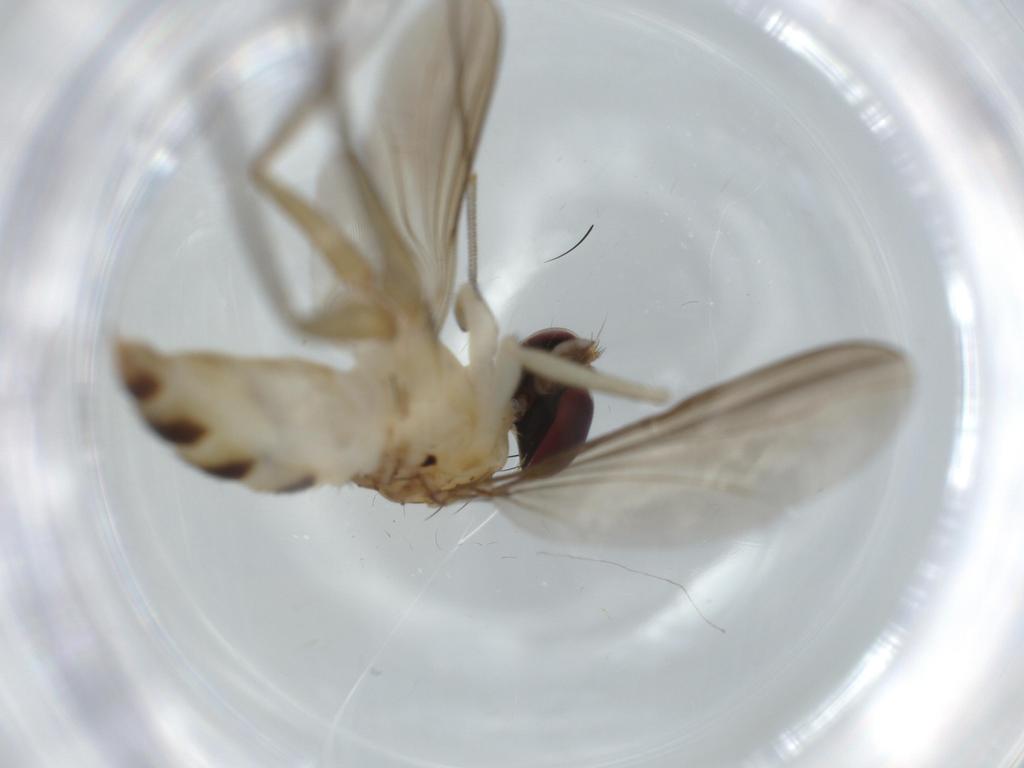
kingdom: Animalia
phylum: Arthropoda
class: Insecta
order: Diptera
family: Dolichopodidae
